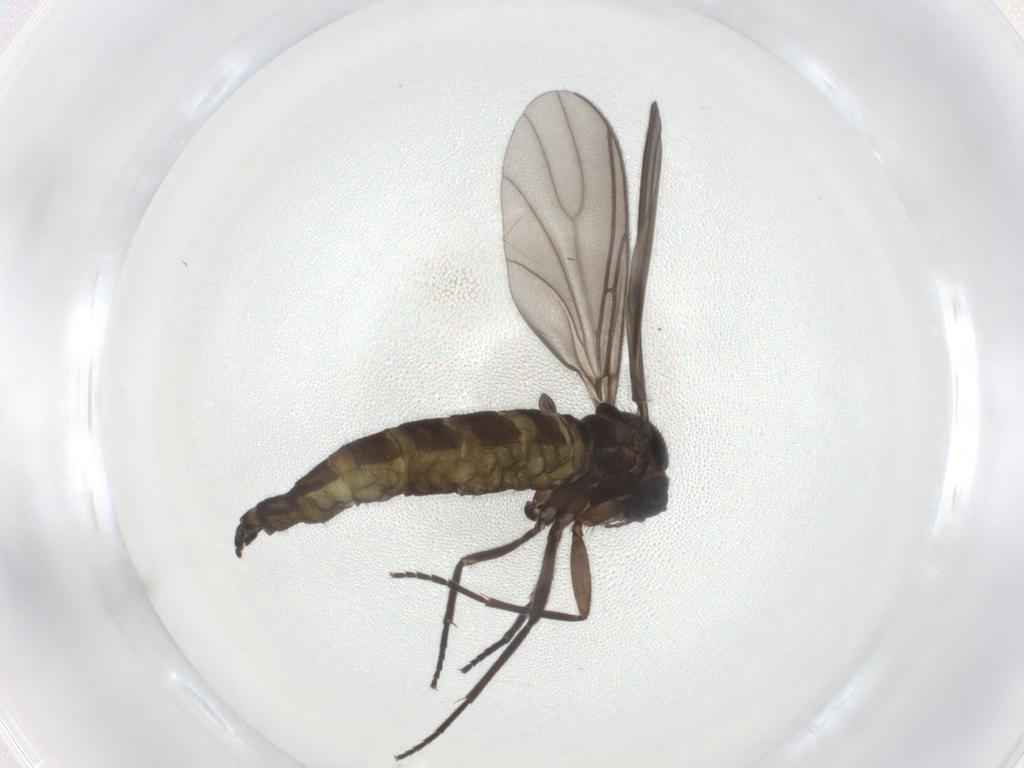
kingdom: Animalia
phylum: Arthropoda
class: Insecta
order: Diptera
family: Sciaridae
